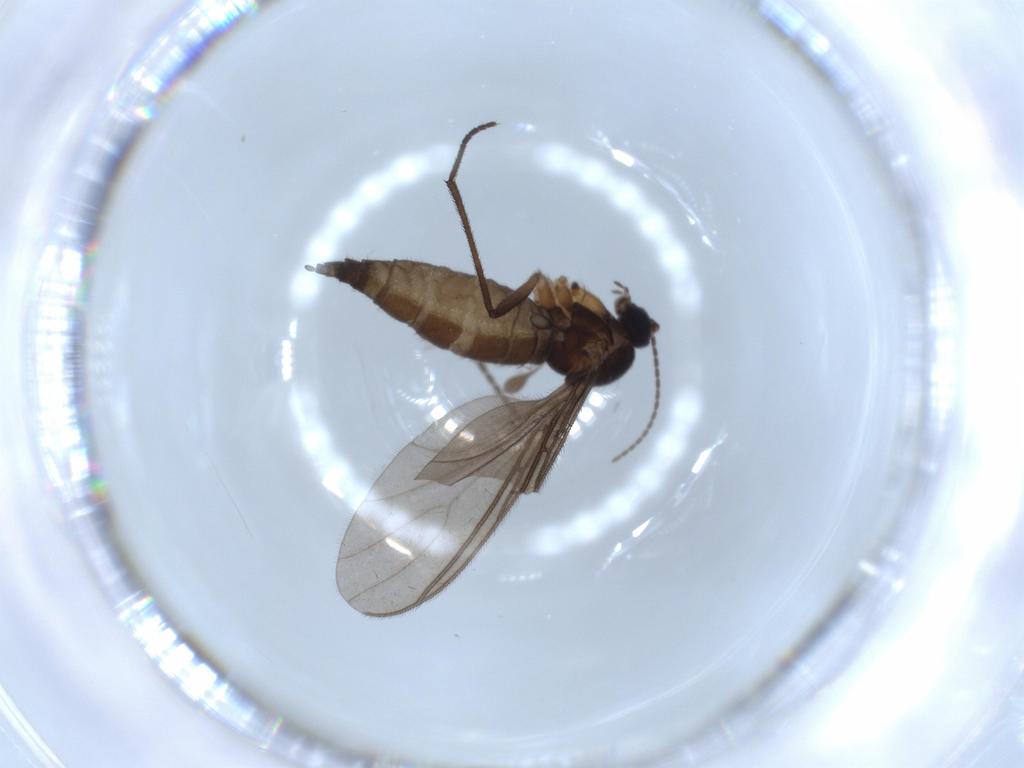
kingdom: Animalia
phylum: Arthropoda
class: Insecta
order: Diptera
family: Sciaridae
